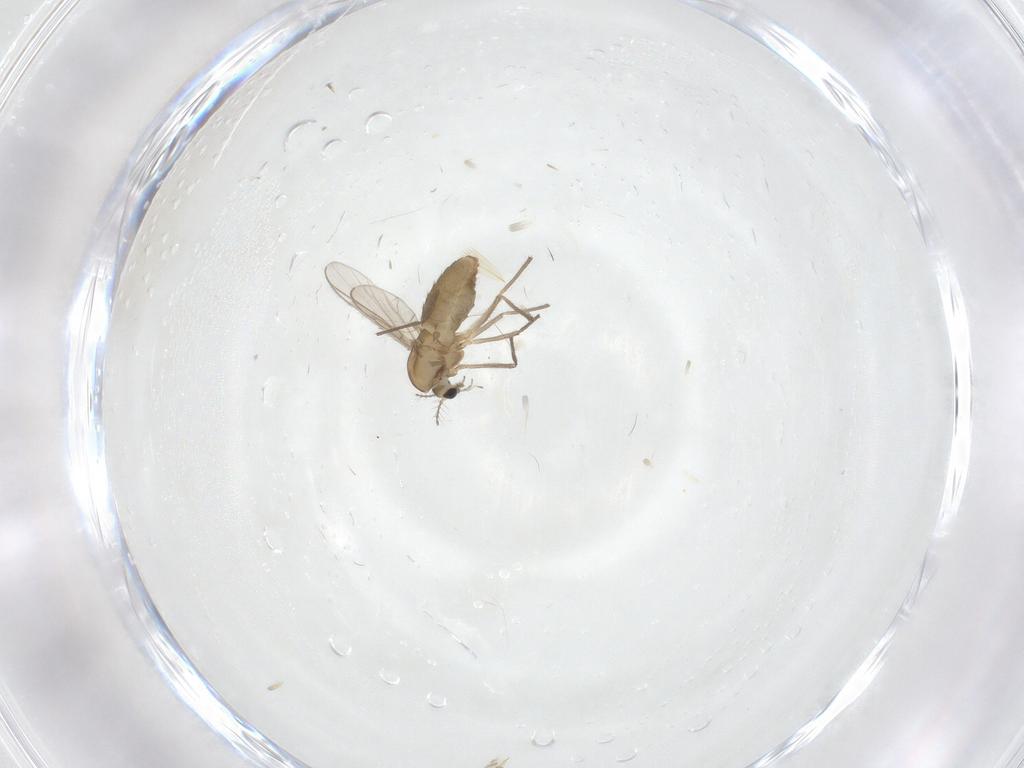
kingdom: Animalia
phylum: Arthropoda
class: Insecta
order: Diptera
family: Chironomidae
